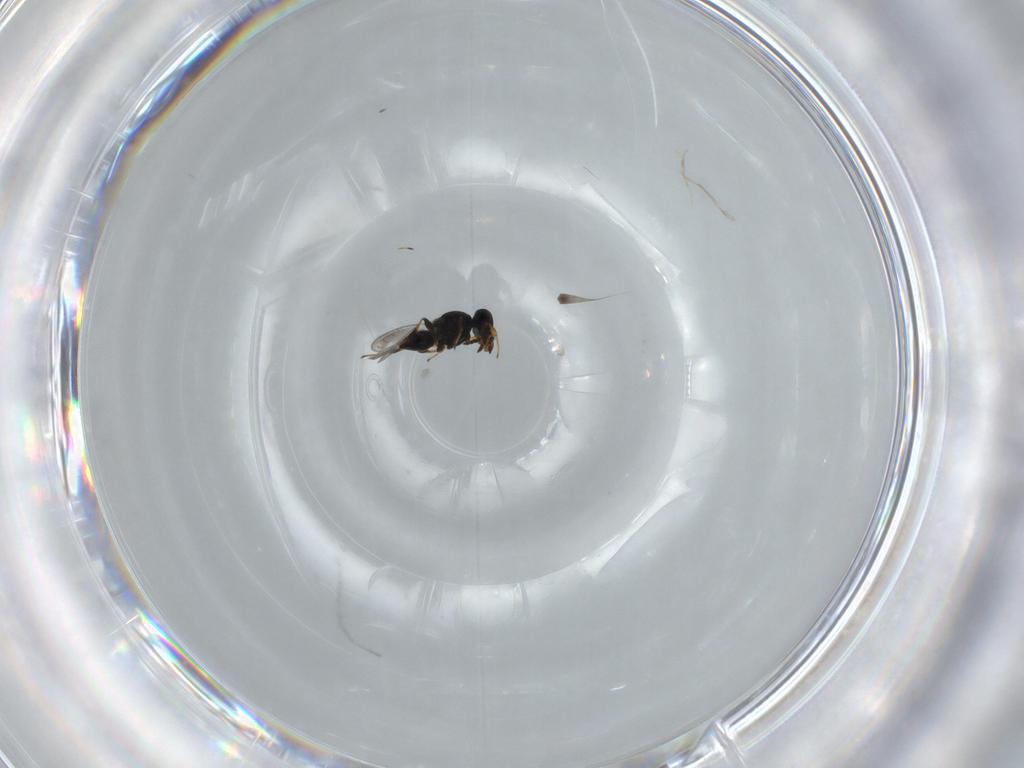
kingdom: Animalia
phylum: Arthropoda
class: Insecta
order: Hymenoptera
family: Platygastridae
